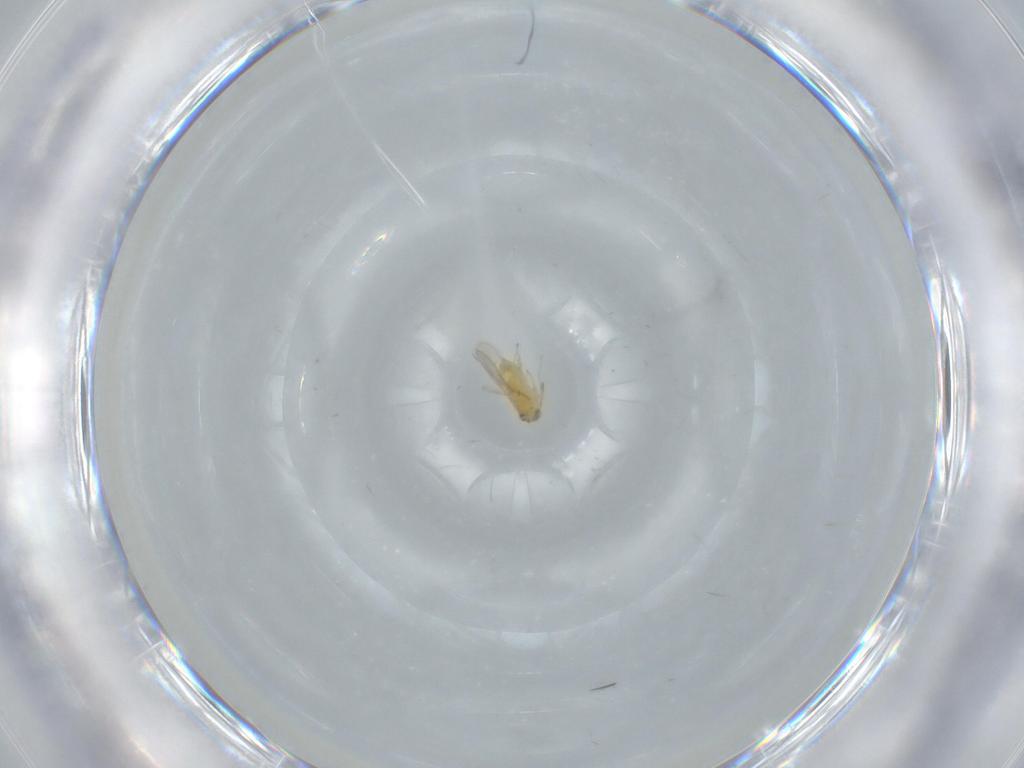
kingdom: Animalia
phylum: Arthropoda
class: Insecta
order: Hymenoptera
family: Aphelinidae
